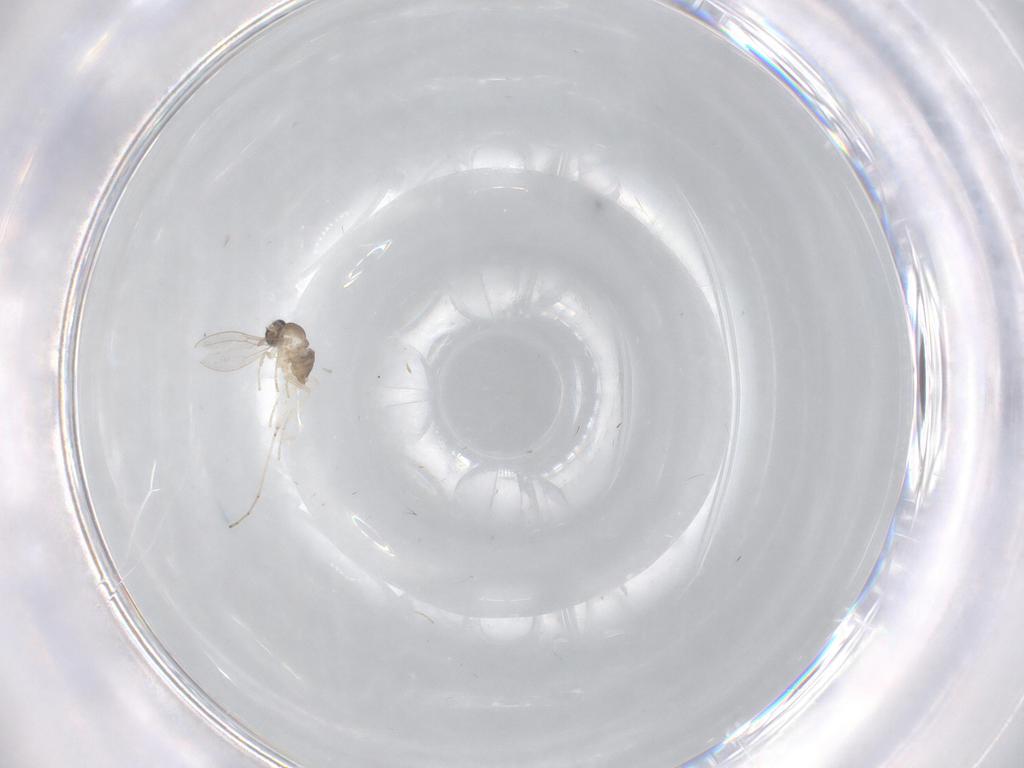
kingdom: Animalia
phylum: Arthropoda
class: Insecta
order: Diptera
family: Cecidomyiidae
